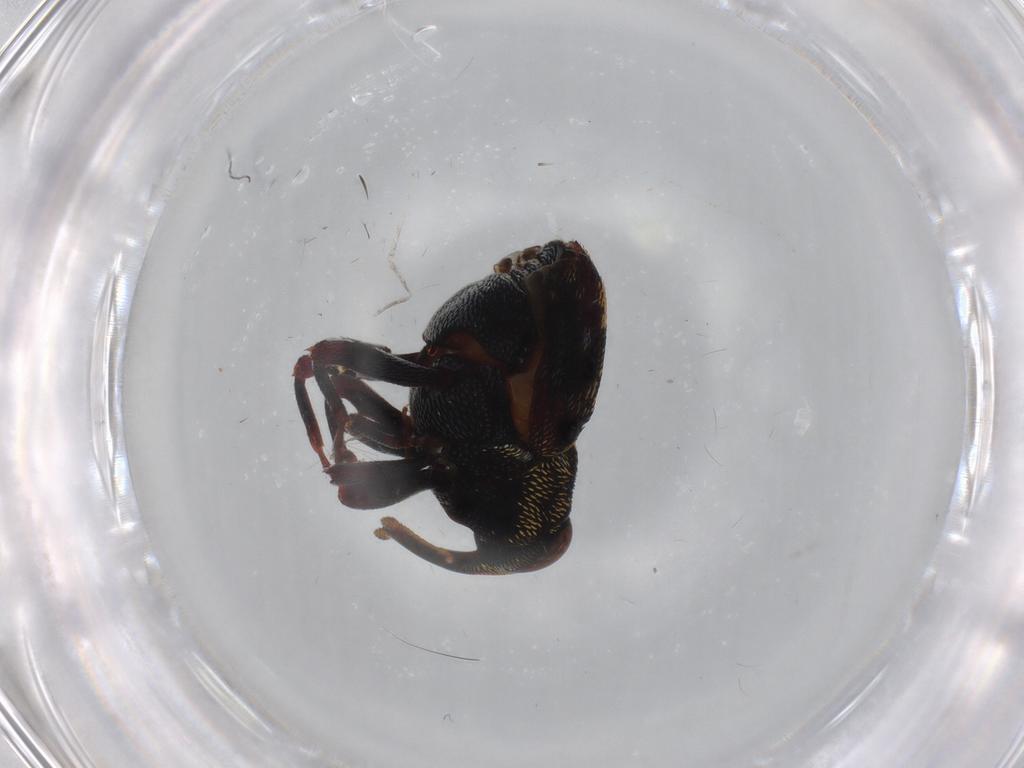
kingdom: Animalia
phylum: Arthropoda
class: Insecta
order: Coleoptera
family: Curculionidae
